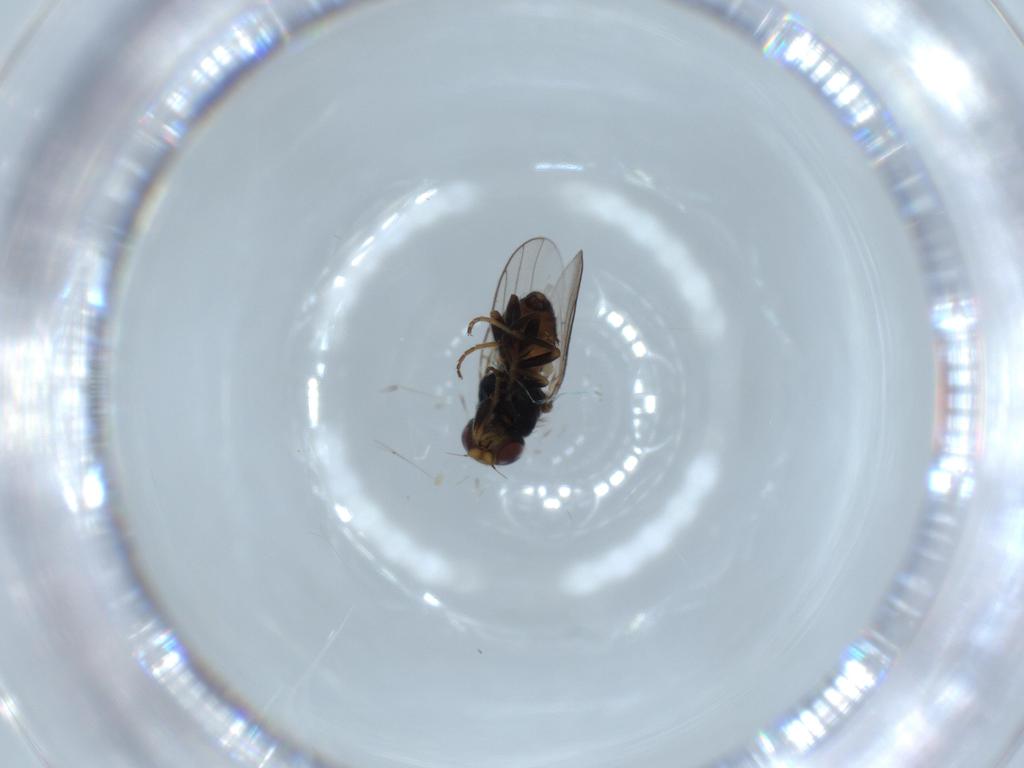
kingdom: Animalia
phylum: Arthropoda
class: Insecta
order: Diptera
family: Chloropidae
